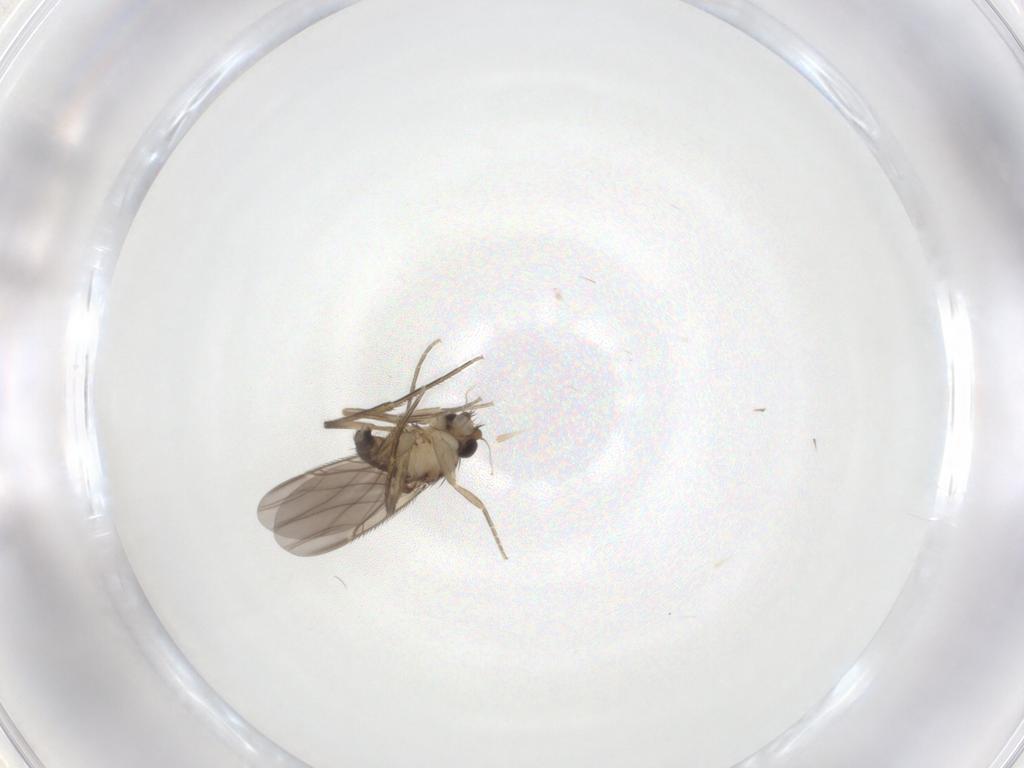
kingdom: Animalia
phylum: Arthropoda
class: Insecta
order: Diptera
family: Phoridae
